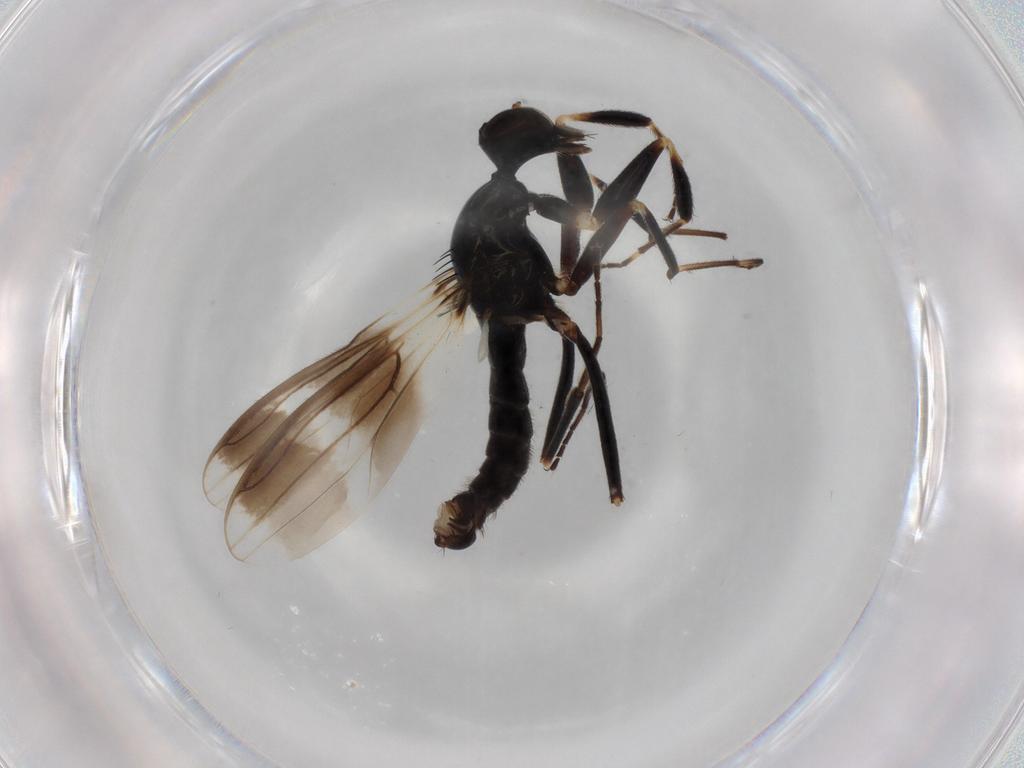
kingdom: Animalia
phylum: Arthropoda
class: Insecta
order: Diptera
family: Hybotidae
